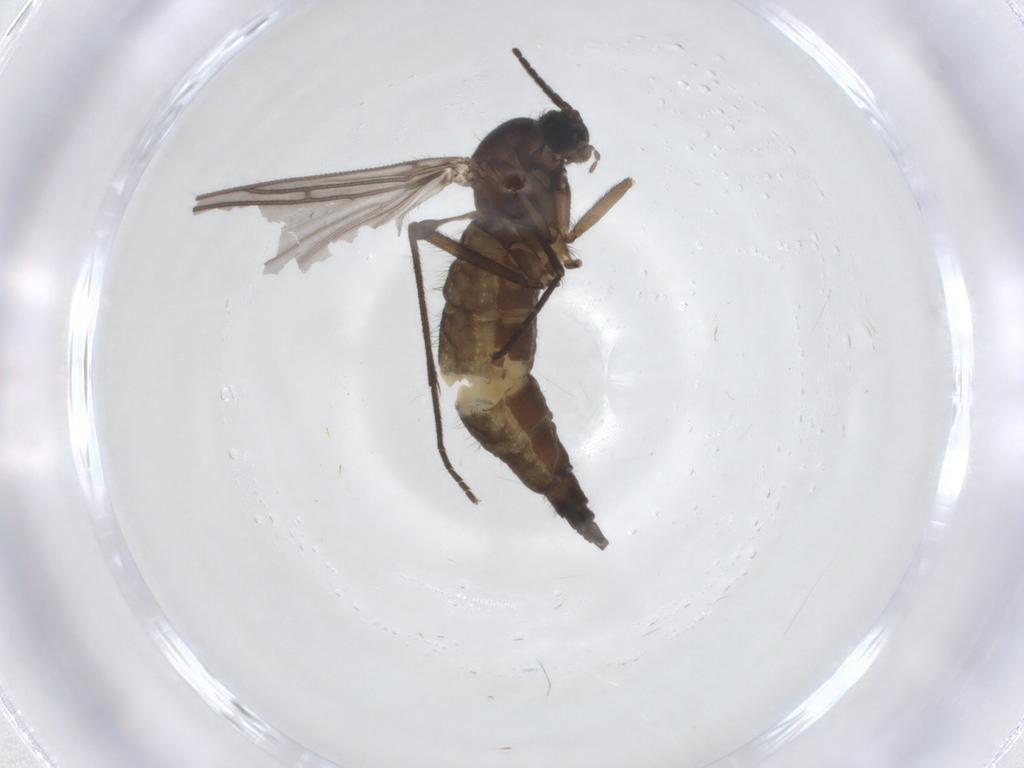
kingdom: Animalia
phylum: Arthropoda
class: Insecta
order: Diptera
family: Sciaridae
